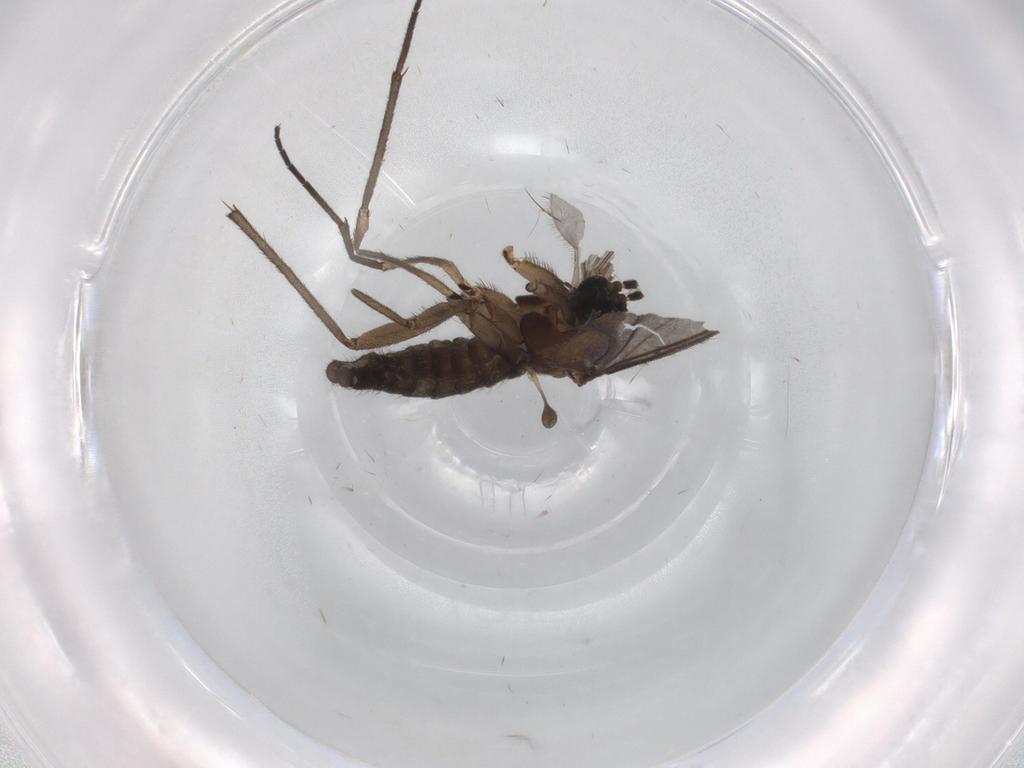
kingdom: Animalia
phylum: Arthropoda
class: Insecta
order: Diptera
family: Sciaridae
